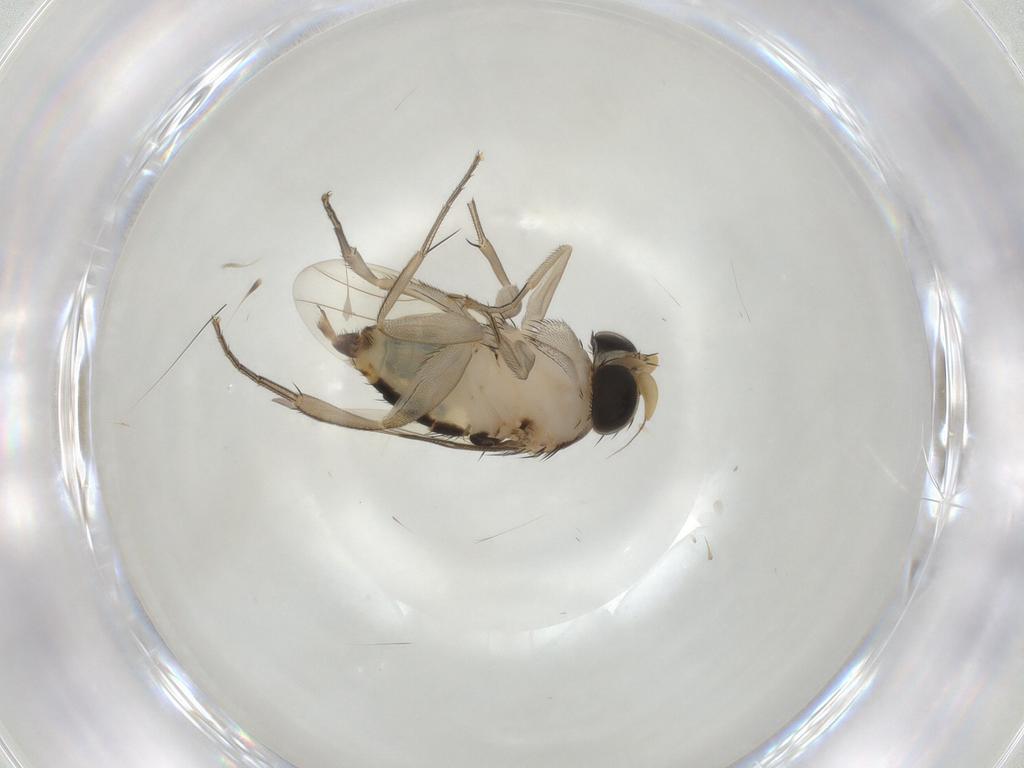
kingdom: Animalia
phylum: Arthropoda
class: Insecta
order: Diptera
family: Phoridae
